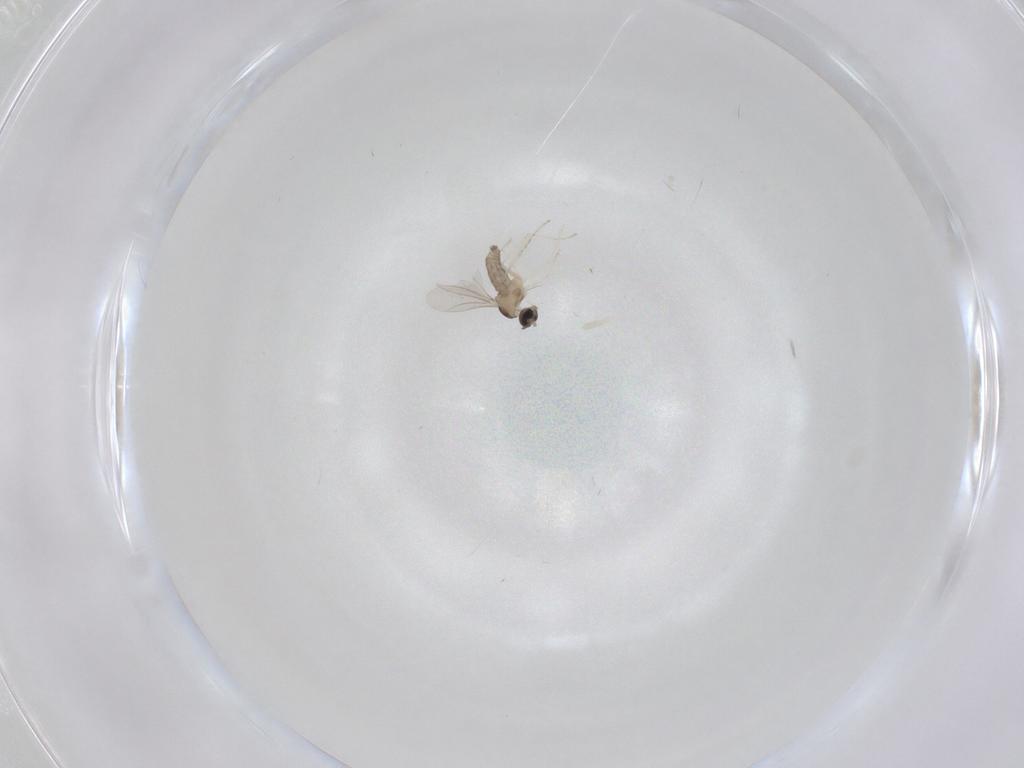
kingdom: Animalia
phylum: Arthropoda
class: Insecta
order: Diptera
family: Cecidomyiidae
